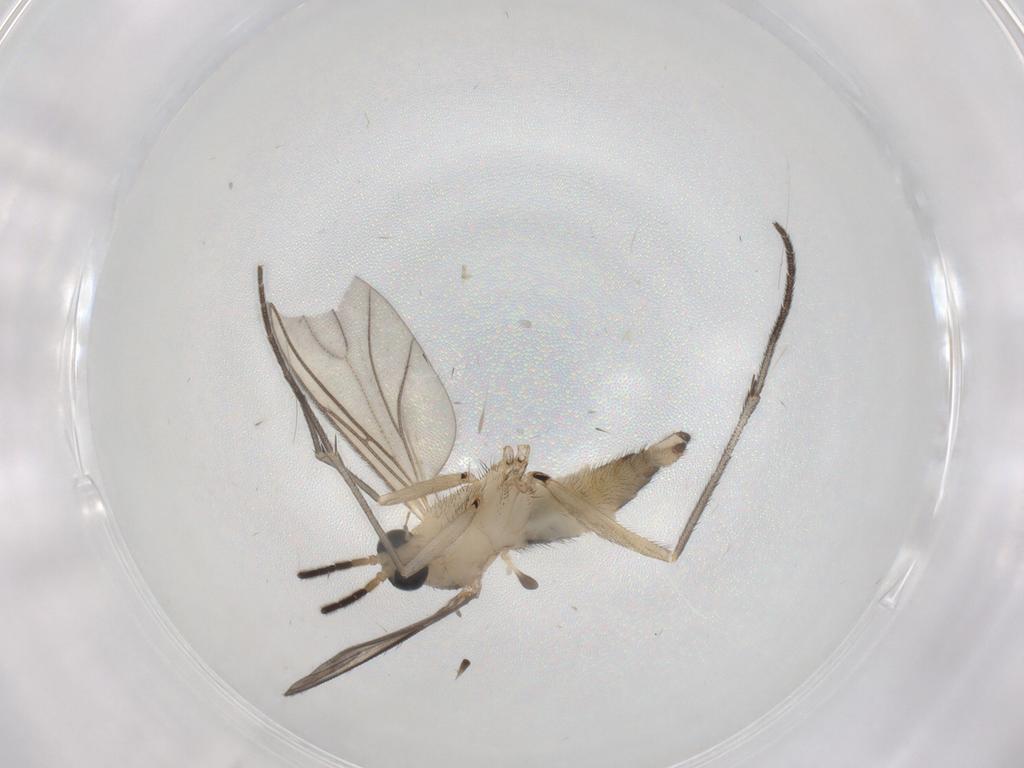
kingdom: Animalia
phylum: Arthropoda
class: Insecta
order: Diptera
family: Sciaridae
